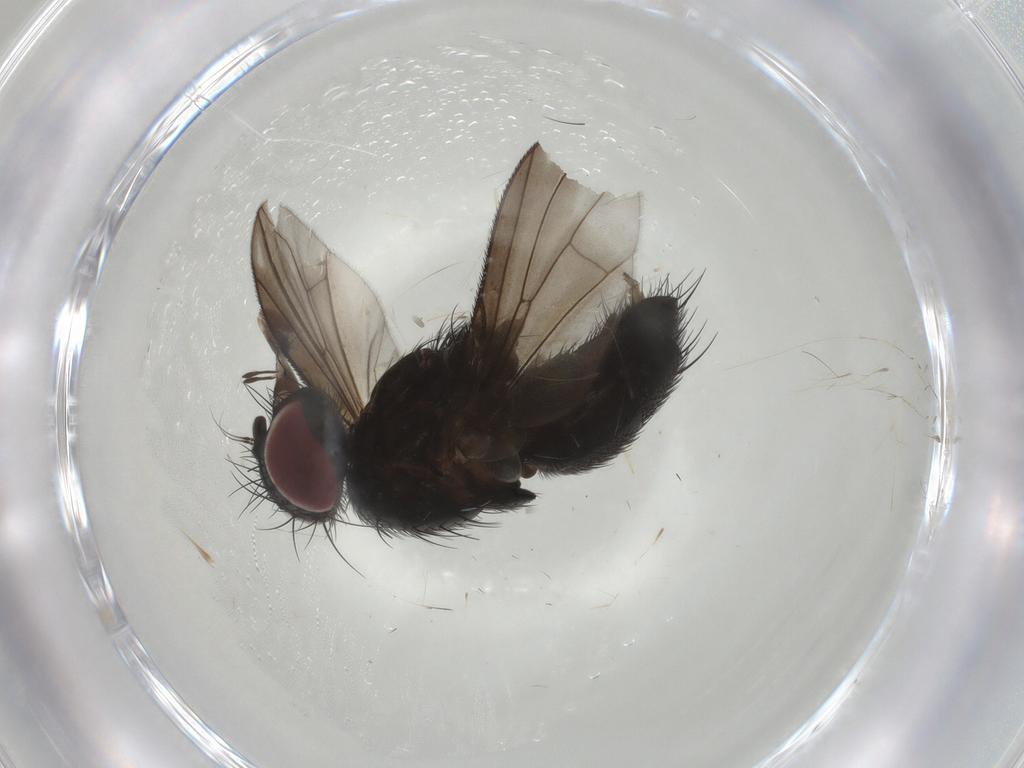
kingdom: Animalia
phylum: Arthropoda
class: Insecta
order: Diptera
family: Calliphoridae
